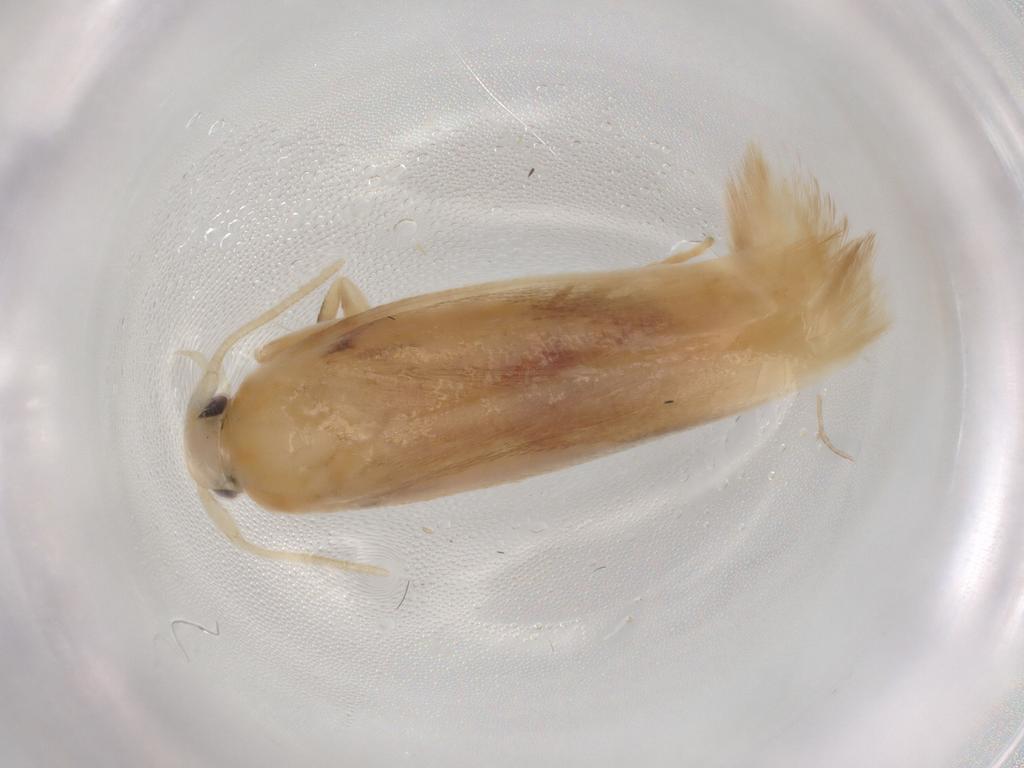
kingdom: Animalia
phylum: Arthropoda
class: Insecta
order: Lepidoptera
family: Geometridae
